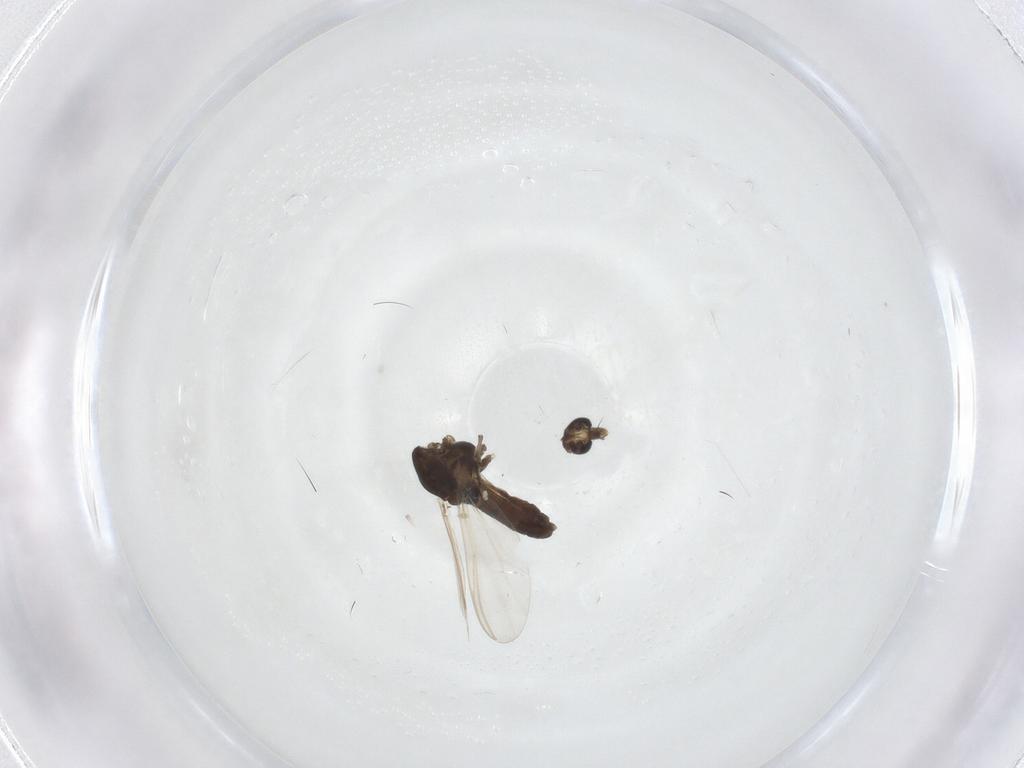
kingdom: Animalia
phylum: Arthropoda
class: Insecta
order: Diptera
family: Chironomidae
